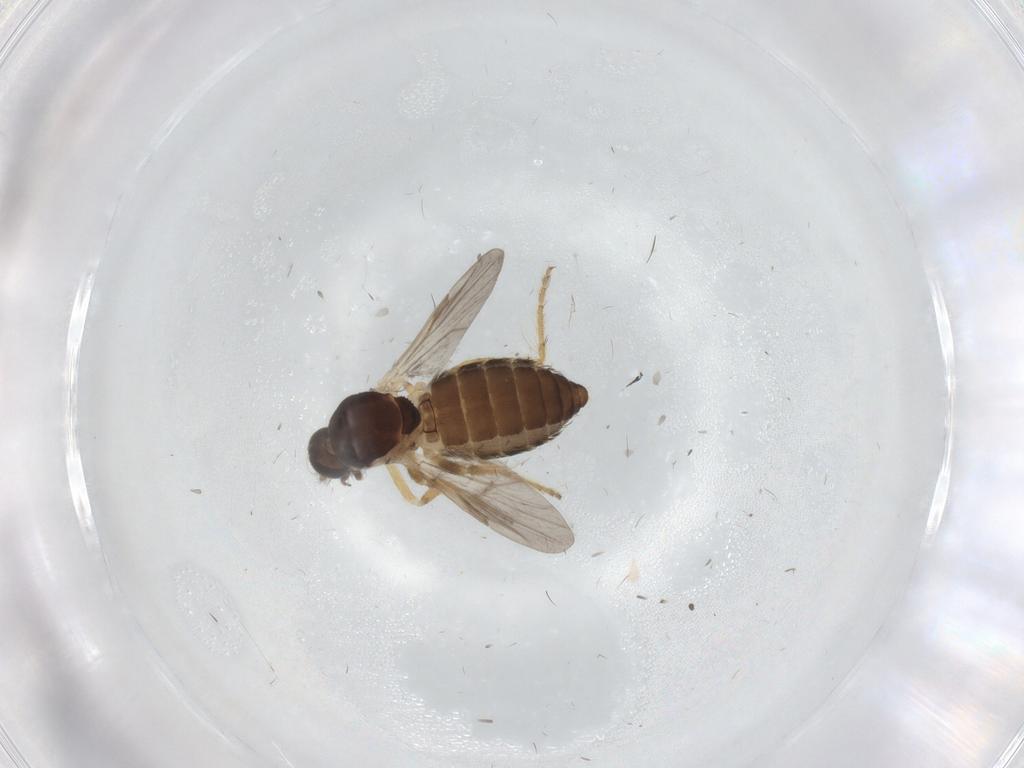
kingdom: Animalia
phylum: Arthropoda
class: Insecta
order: Diptera
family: Ceratopogonidae
